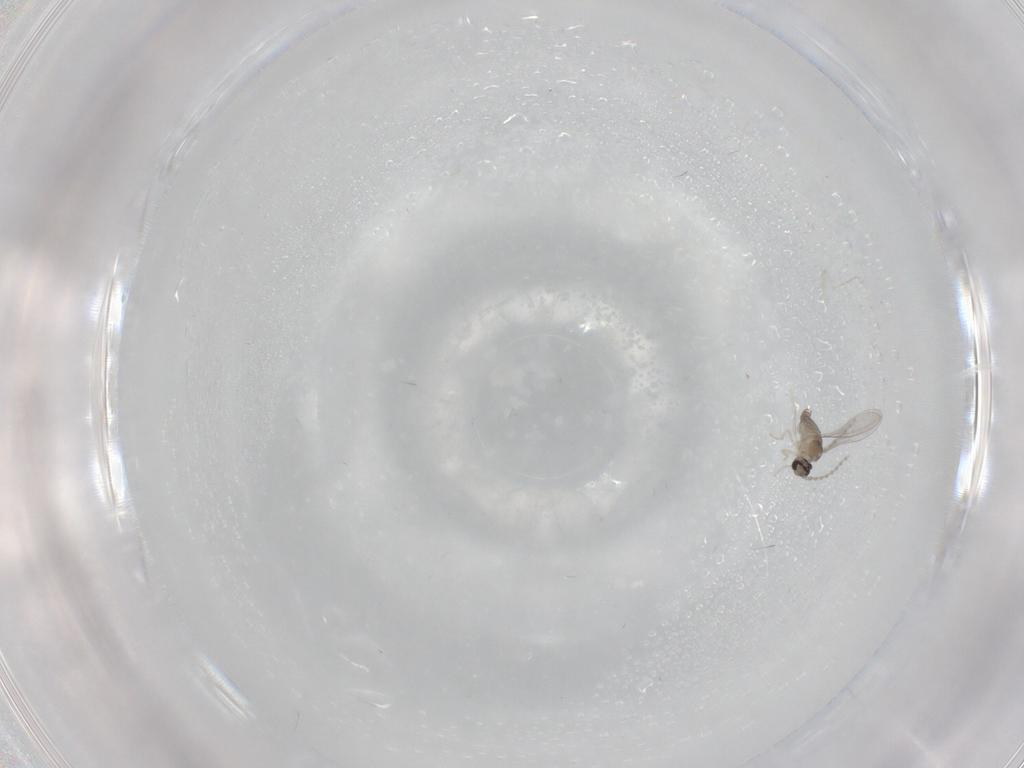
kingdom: Animalia
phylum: Arthropoda
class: Insecta
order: Diptera
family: Cecidomyiidae
